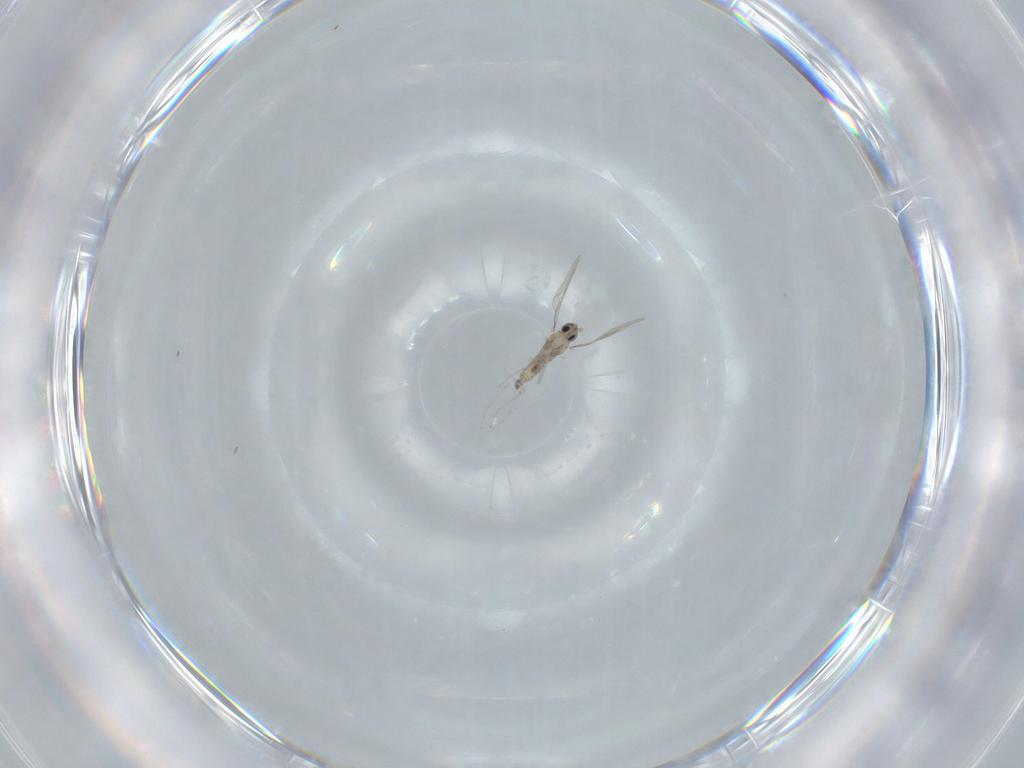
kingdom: Animalia
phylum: Arthropoda
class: Insecta
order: Diptera
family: Cecidomyiidae
